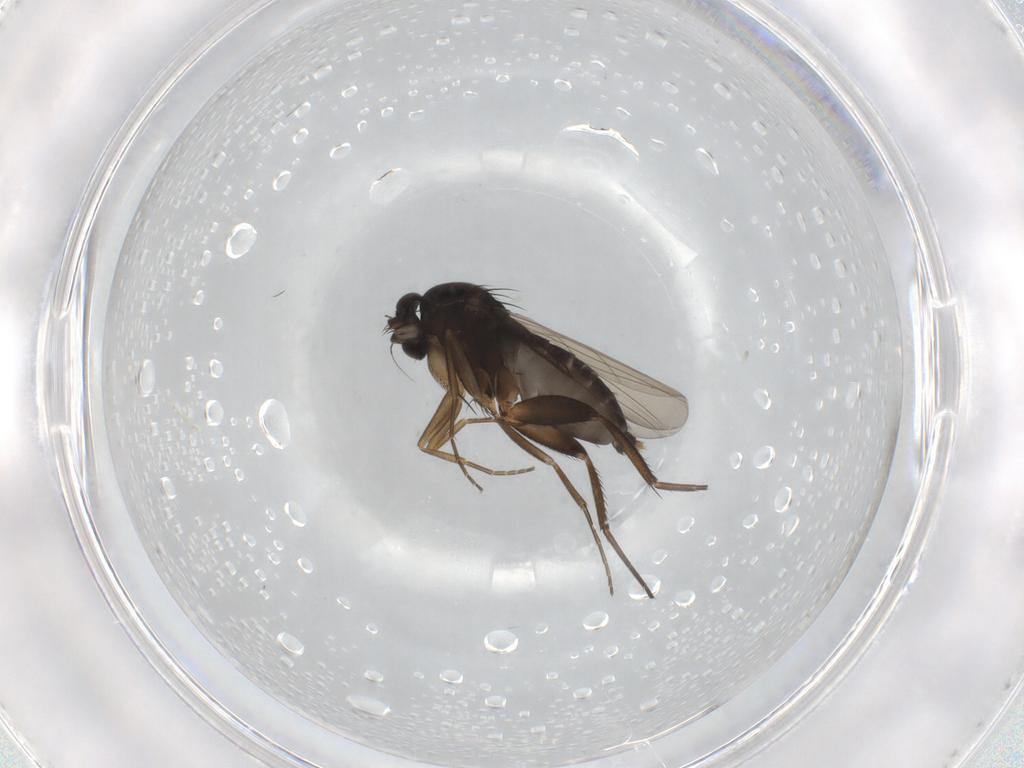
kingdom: Animalia
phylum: Arthropoda
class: Insecta
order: Diptera
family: Phoridae
